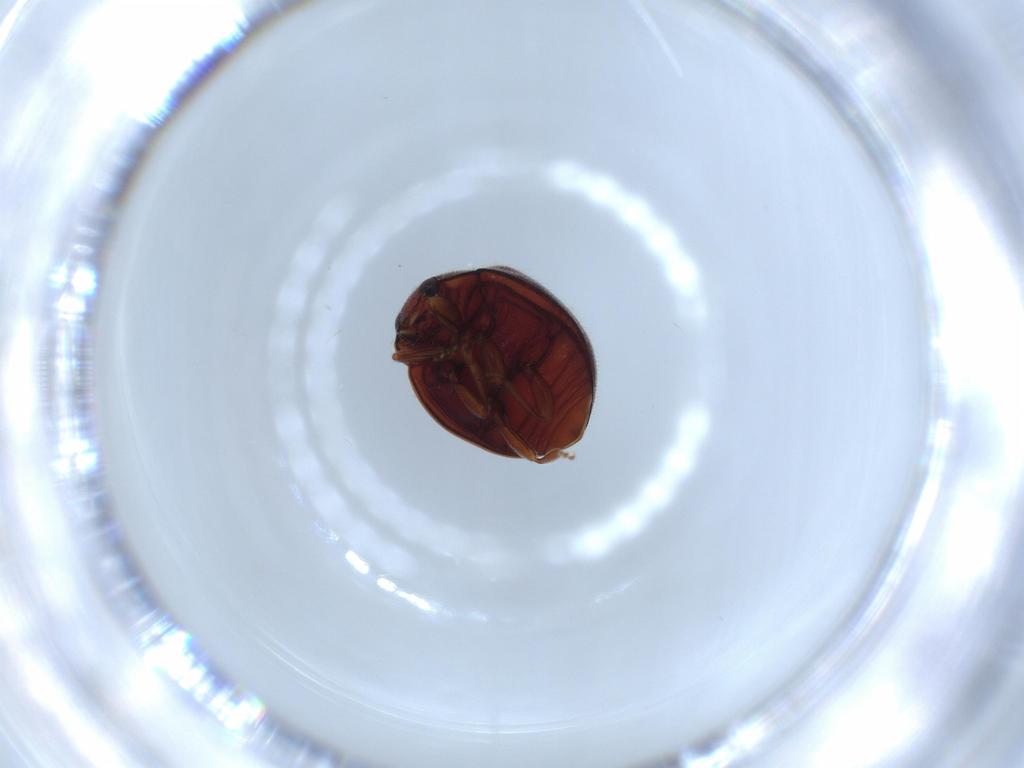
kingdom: Animalia
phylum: Arthropoda
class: Insecta
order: Coleoptera
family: Coccinellidae
